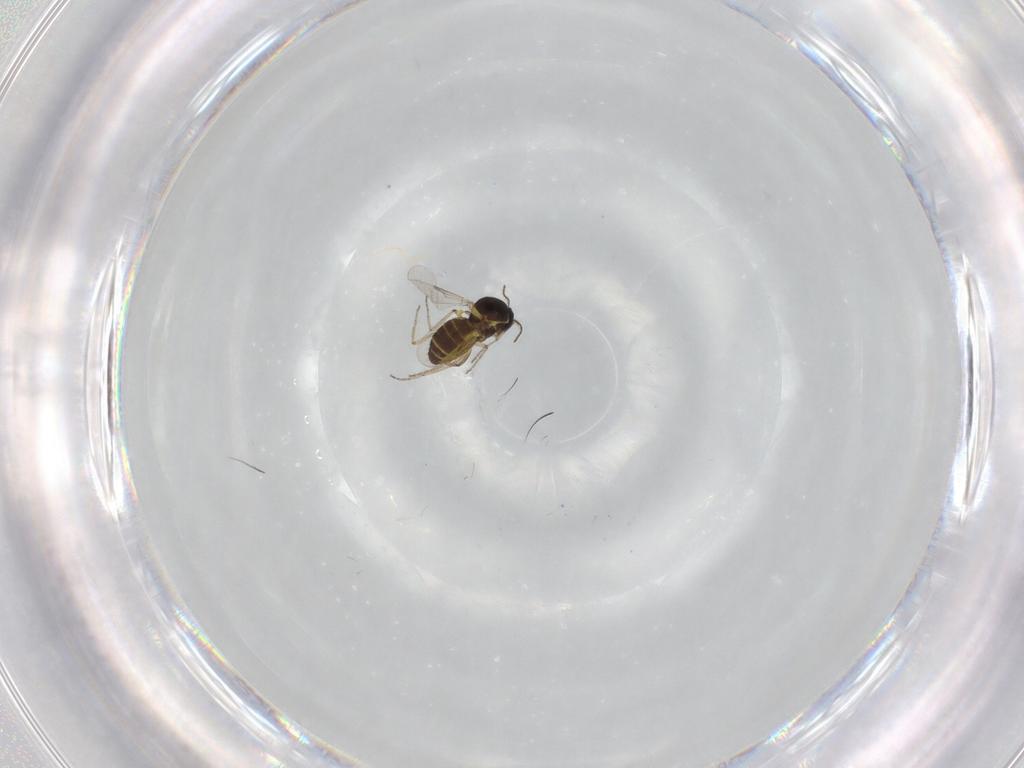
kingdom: Animalia
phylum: Arthropoda
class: Insecta
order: Diptera
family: Ceratopogonidae
